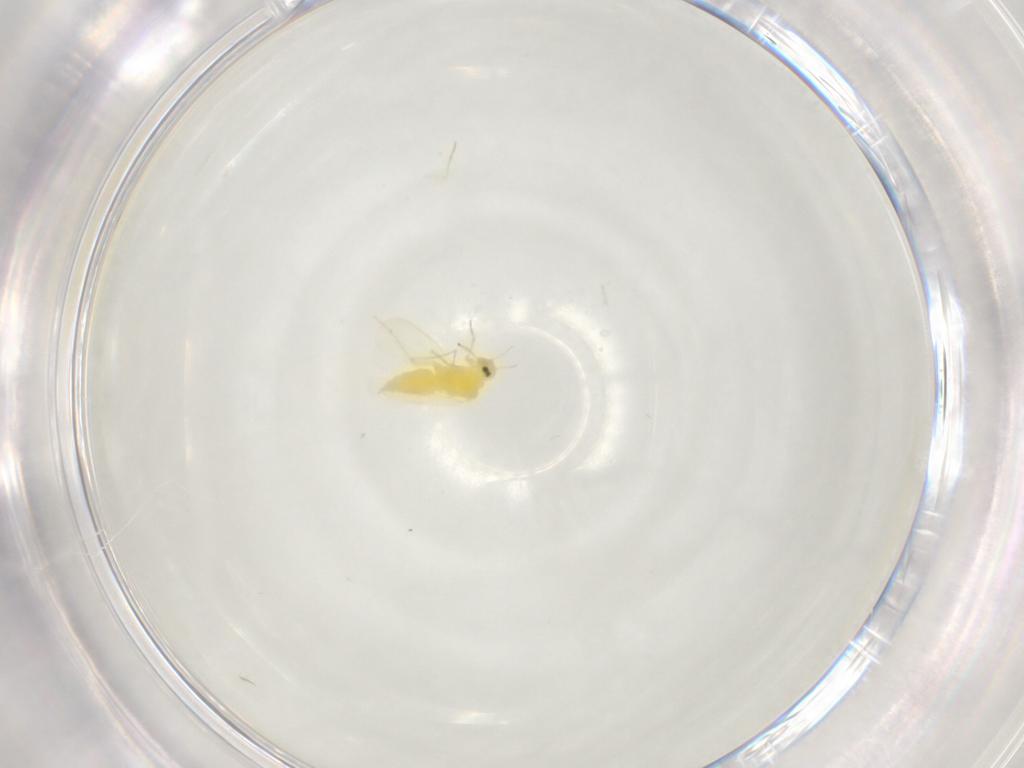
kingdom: Animalia
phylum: Arthropoda
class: Insecta
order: Hemiptera
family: Aleyrodidae
